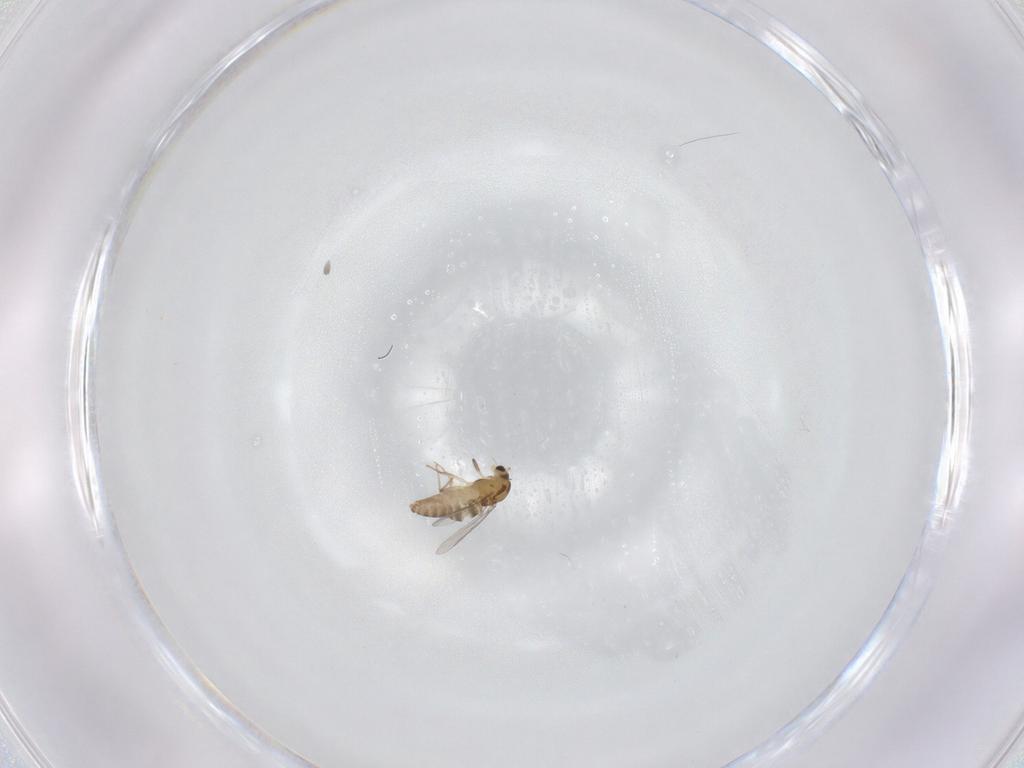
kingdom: Animalia
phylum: Arthropoda
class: Insecta
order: Diptera
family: Chironomidae
